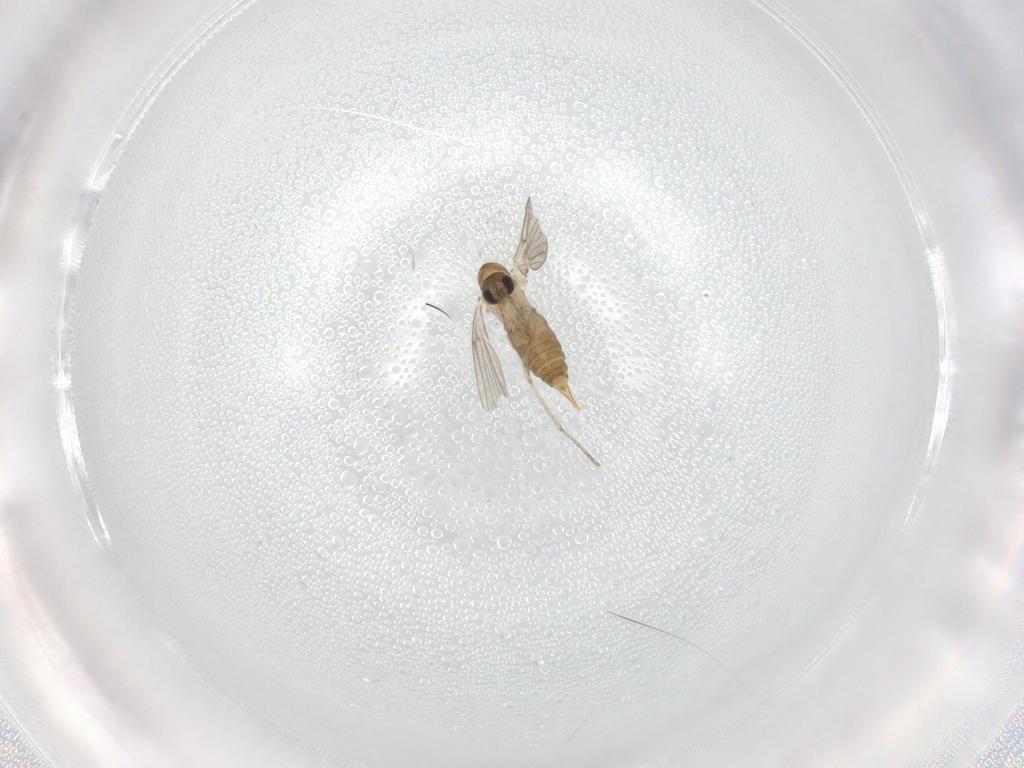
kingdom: Animalia
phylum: Arthropoda
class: Insecta
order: Diptera
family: Psychodidae
